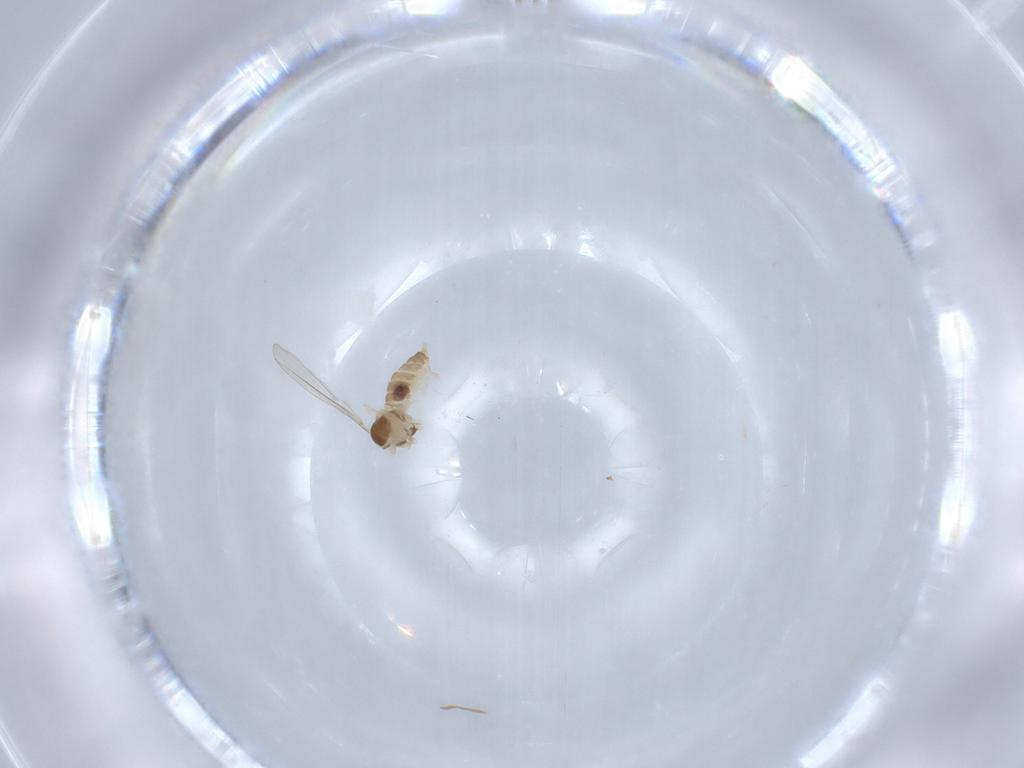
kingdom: Animalia
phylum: Arthropoda
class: Insecta
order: Diptera
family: Cecidomyiidae
